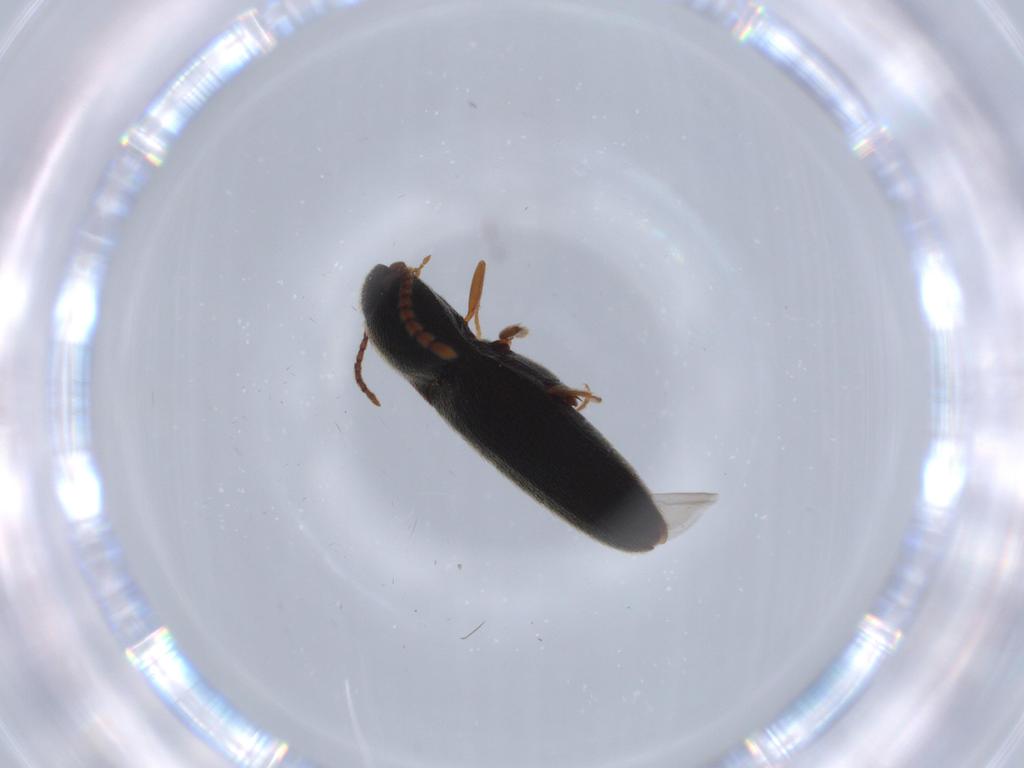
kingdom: Animalia
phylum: Arthropoda
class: Insecta
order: Coleoptera
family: Elateridae
